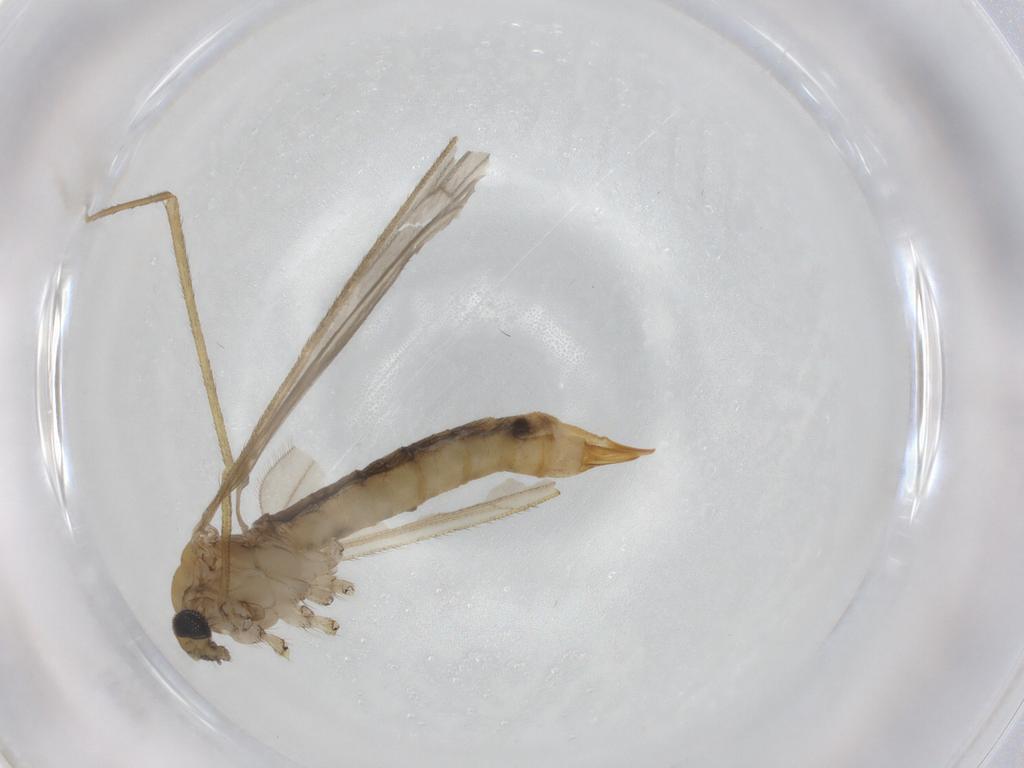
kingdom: Animalia
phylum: Arthropoda
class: Insecta
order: Diptera
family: Limoniidae
